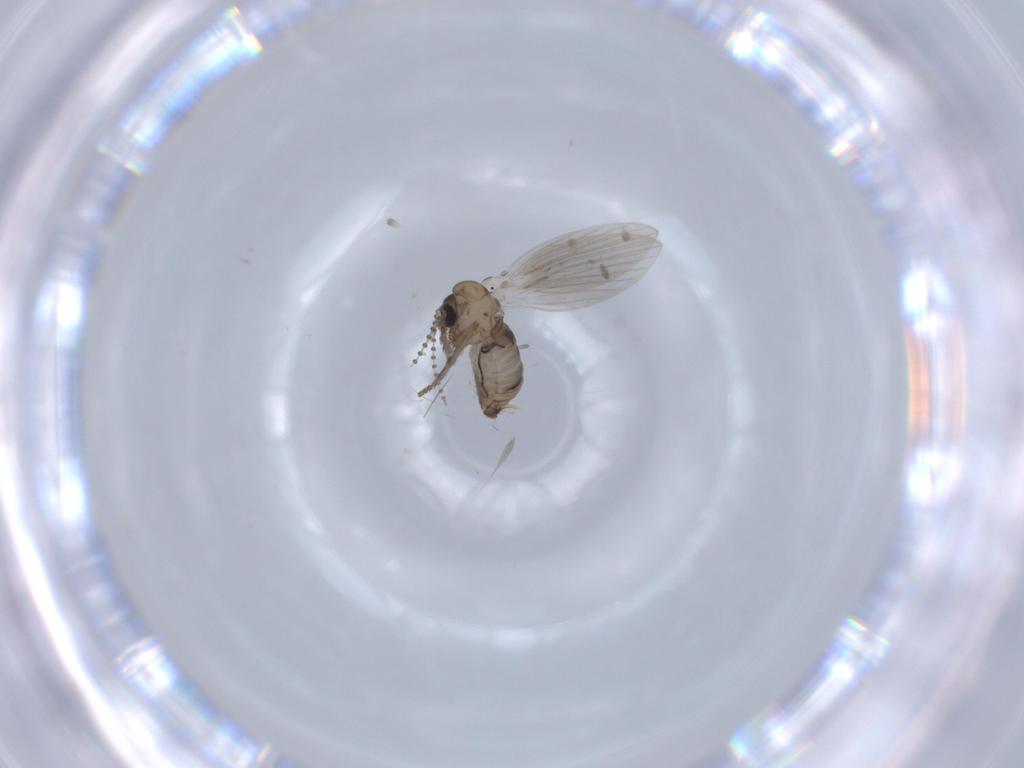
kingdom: Animalia
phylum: Arthropoda
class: Insecta
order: Diptera
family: Psychodidae
